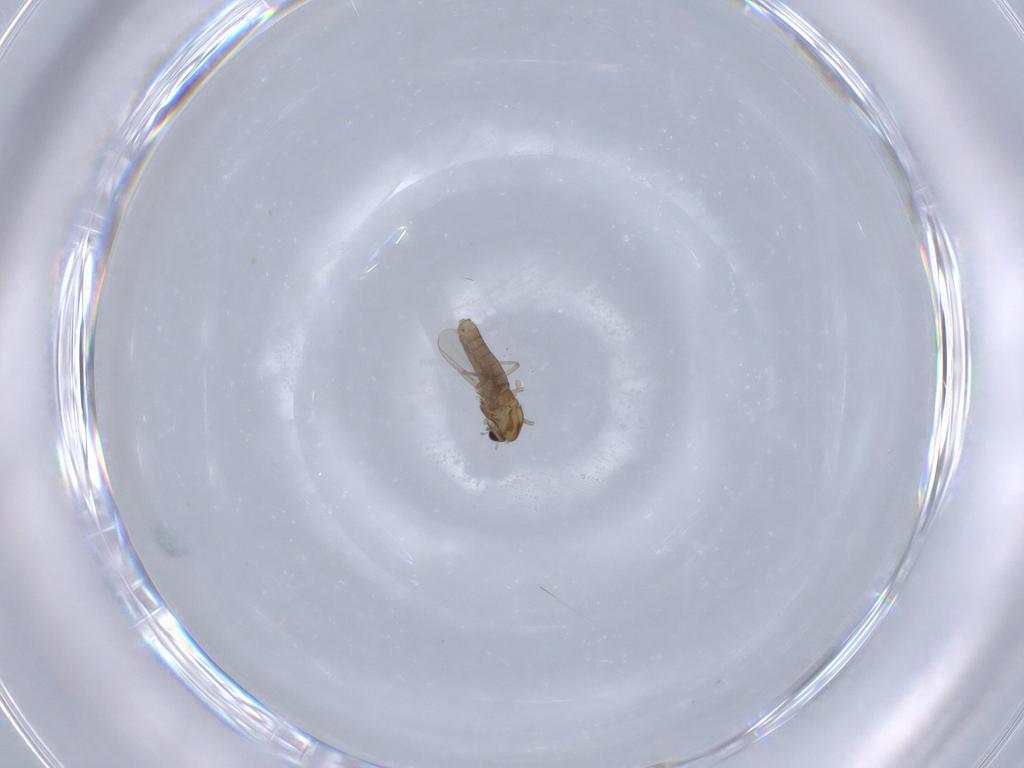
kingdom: Animalia
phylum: Arthropoda
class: Insecta
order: Diptera
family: Chironomidae
